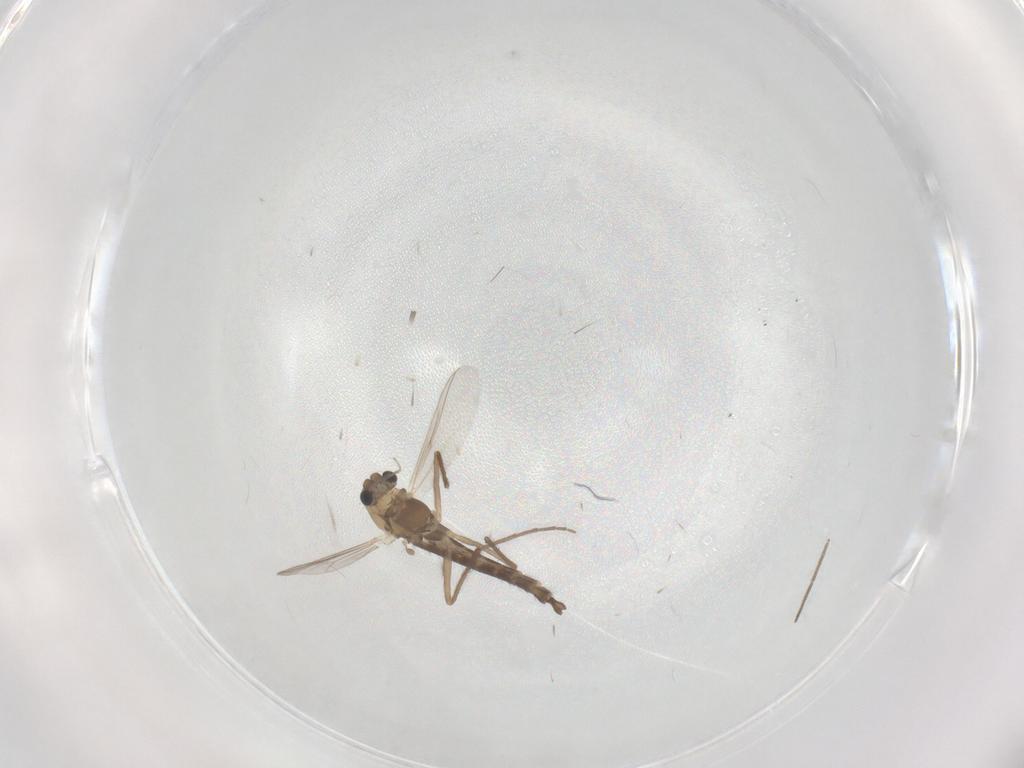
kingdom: Animalia
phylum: Arthropoda
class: Insecta
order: Diptera
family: Chironomidae
